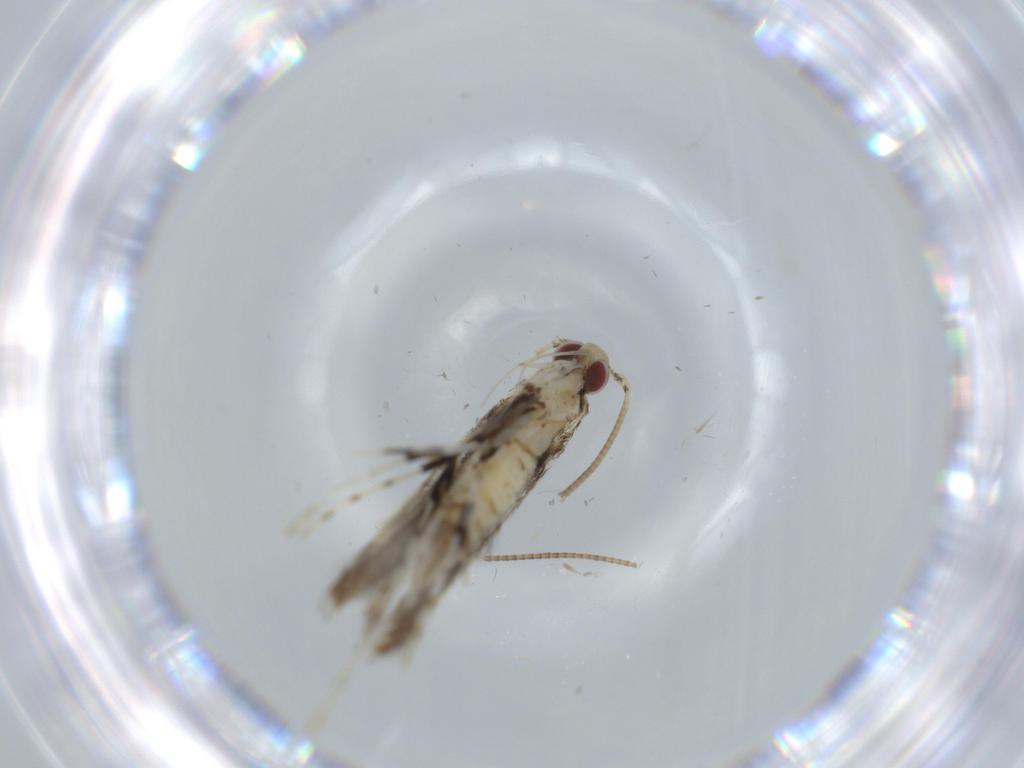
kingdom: Animalia
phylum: Arthropoda
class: Insecta
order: Lepidoptera
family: Gracillariidae
